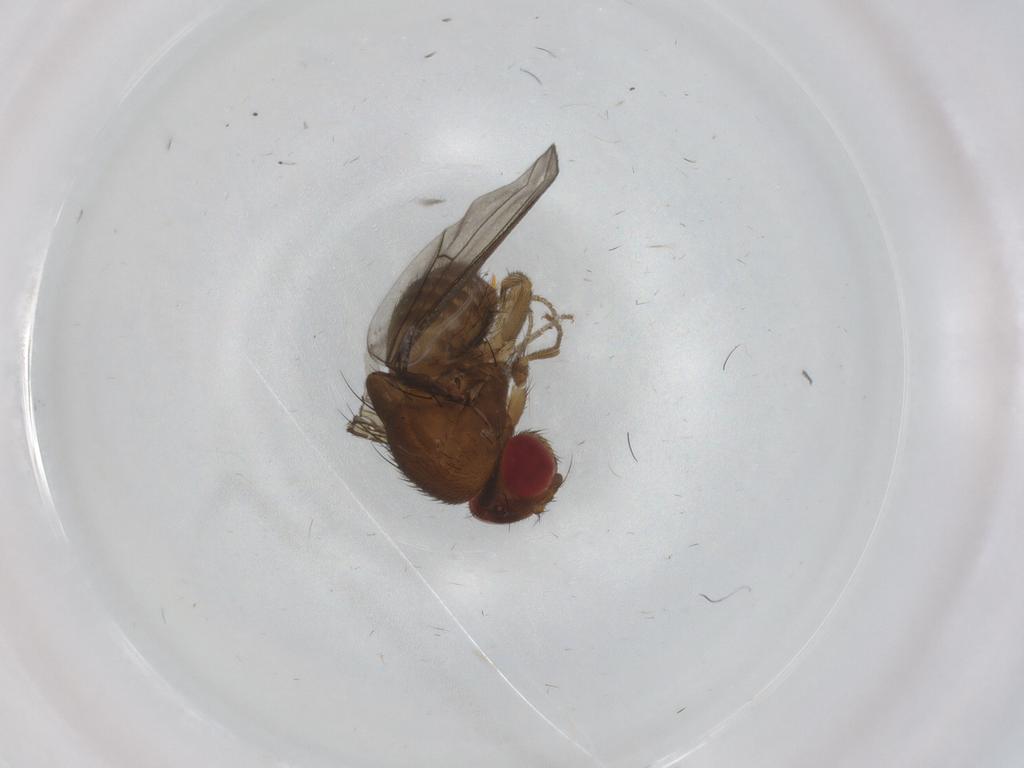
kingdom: Animalia
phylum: Arthropoda
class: Insecta
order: Diptera
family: Drosophilidae
